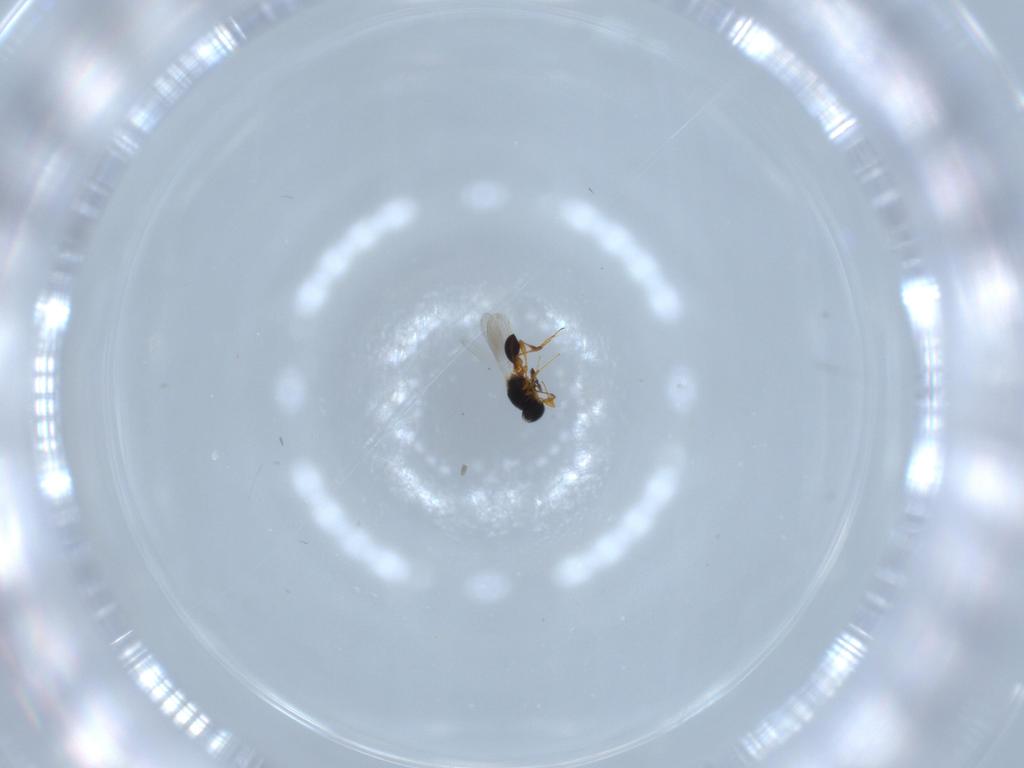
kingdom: Animalia
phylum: Arthropoda
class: Insecta
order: Hymenoptera
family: Platygastridae
